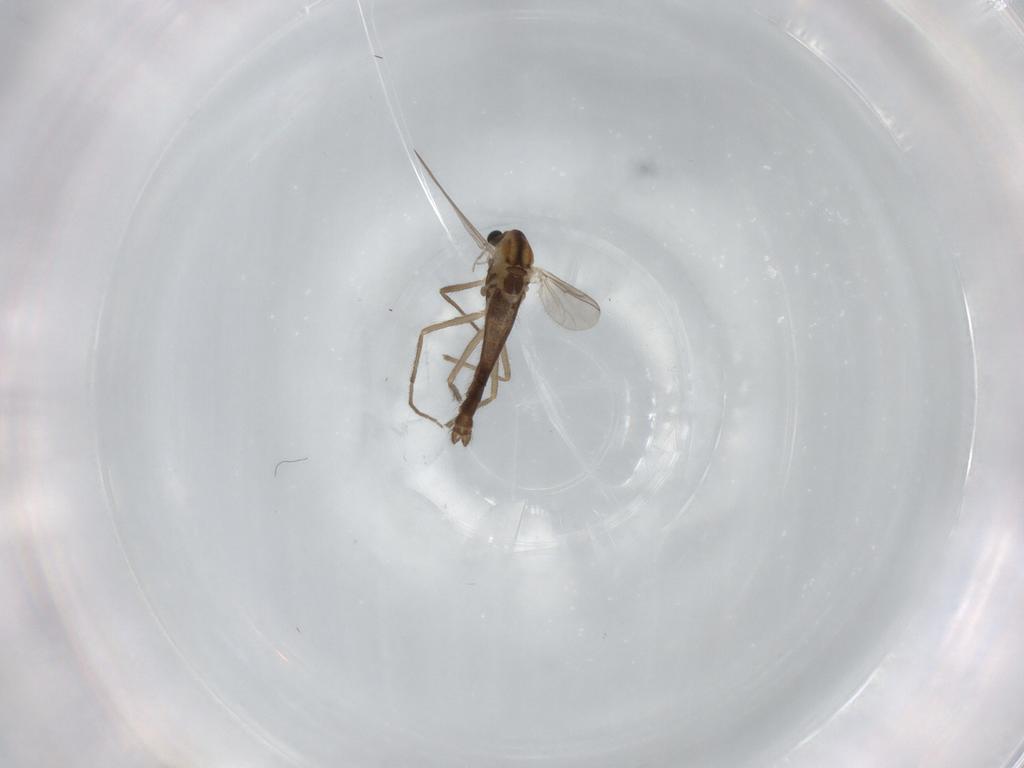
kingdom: Animalia
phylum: Arthropoda
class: Insecta
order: Diptera
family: Chironomidae
